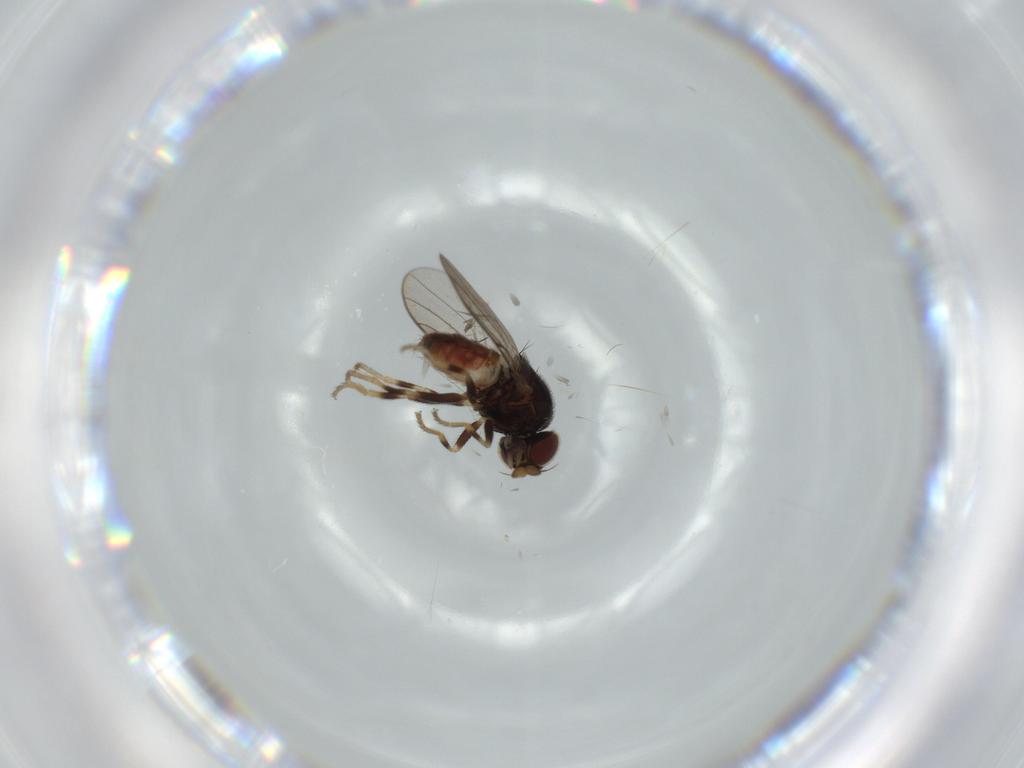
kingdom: Animalia
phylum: Arthropoda
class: Insecta
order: Diptera
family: Chloropidae
